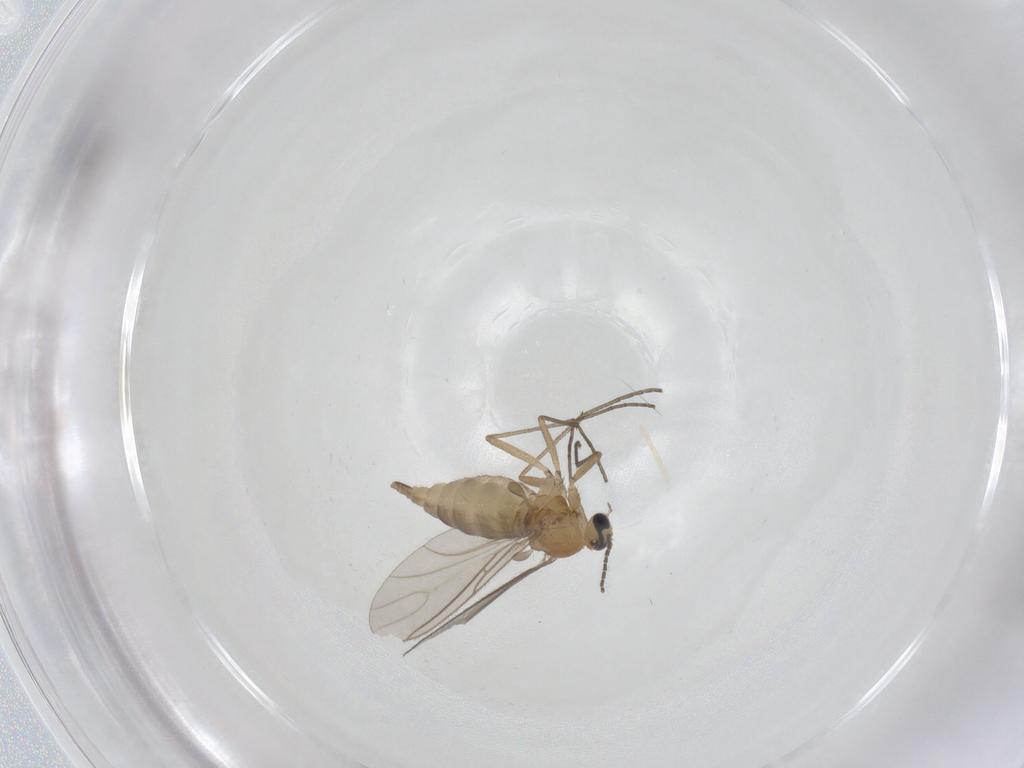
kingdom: Animalia
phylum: Arthropoda
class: Insecta
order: Diptera
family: Sciaridae
